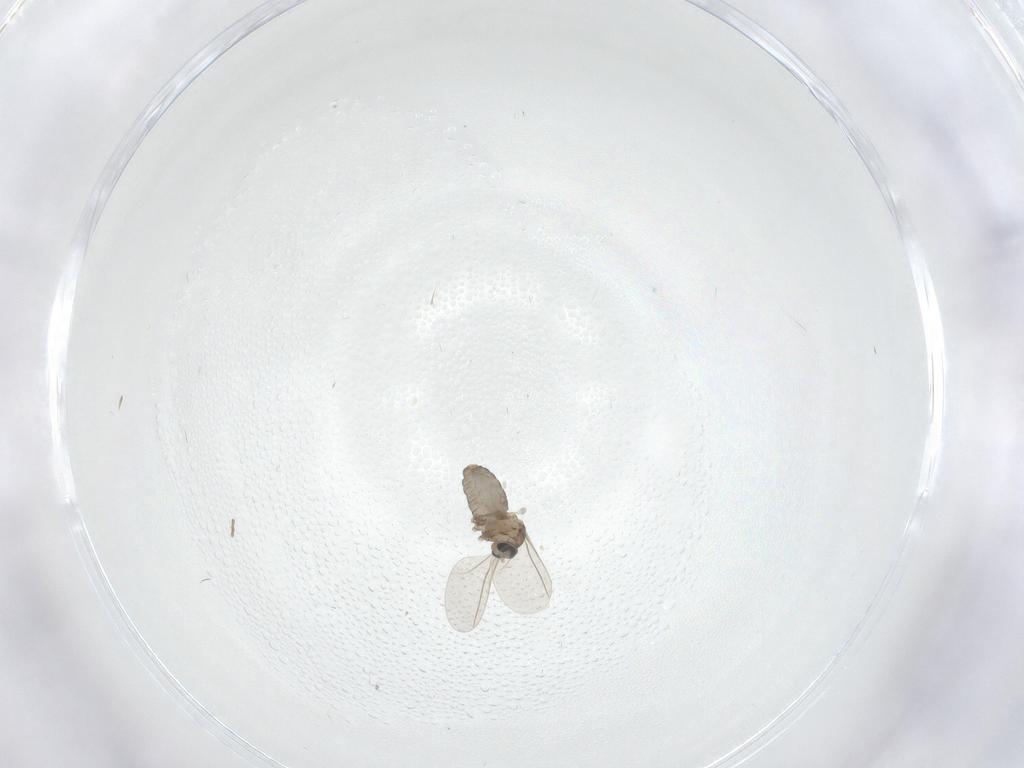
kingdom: Animalia
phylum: Arthropoda
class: Insecta
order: Diptera
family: Cecidomyiidae
